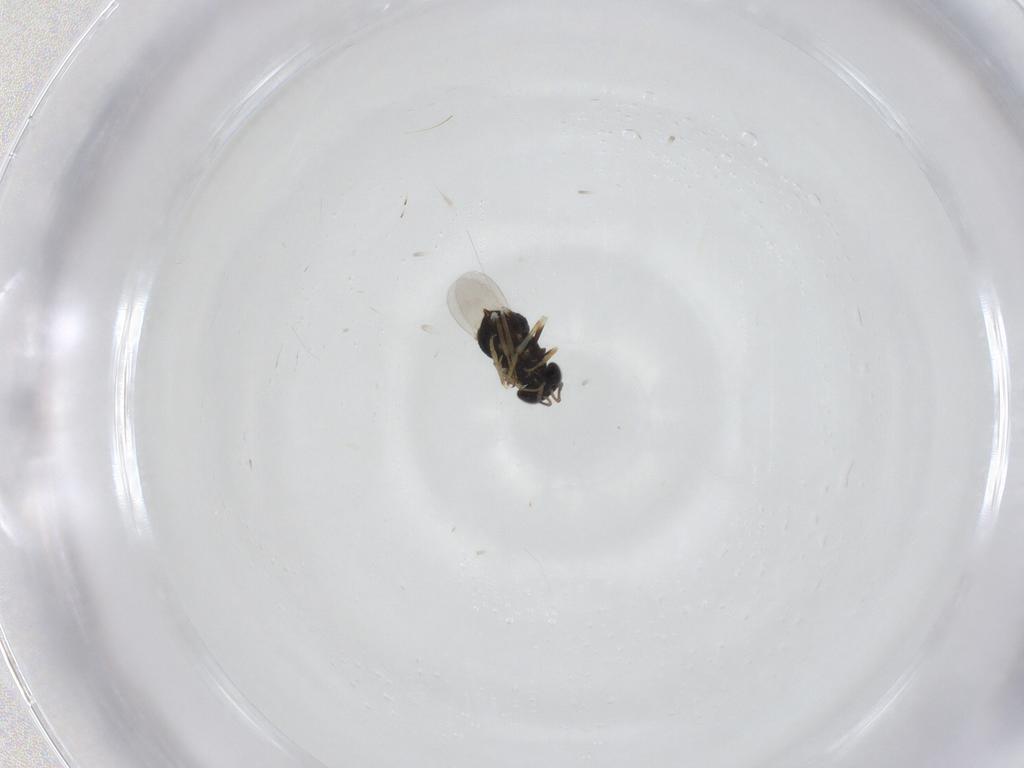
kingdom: Animalia
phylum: Arthropoda
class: Insecta
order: Hymenoptera
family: Encyrtidae
